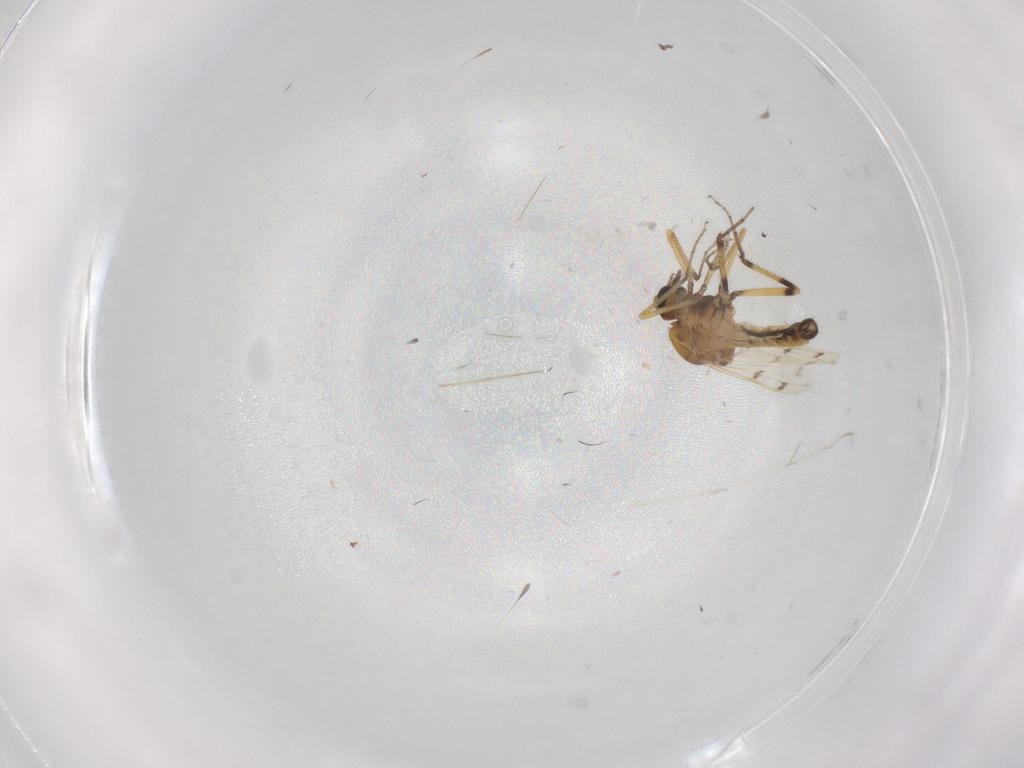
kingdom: Animalia
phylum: Arthropoda
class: Insecta
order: Diptera
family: Ceratopogonidae
